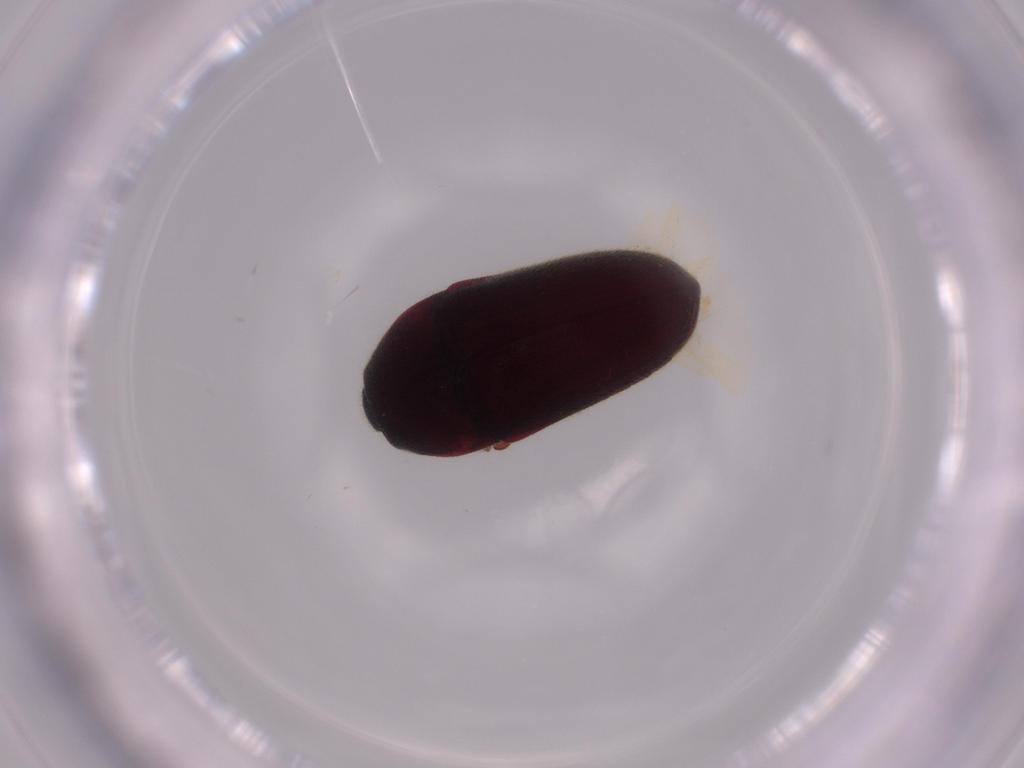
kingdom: Animalia
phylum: Arthropoda
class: Insecta
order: Coleoptera
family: Throscidae
